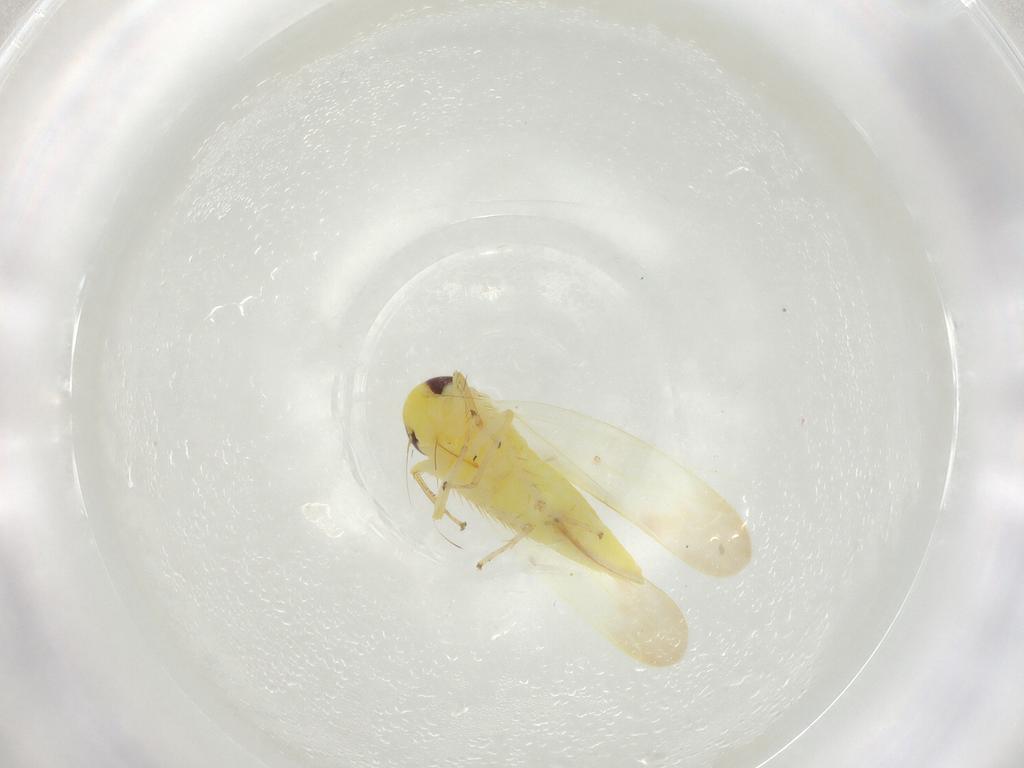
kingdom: Animalia
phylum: Arthropoda
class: Insecta
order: Hemiptera
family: Cicadellidae
